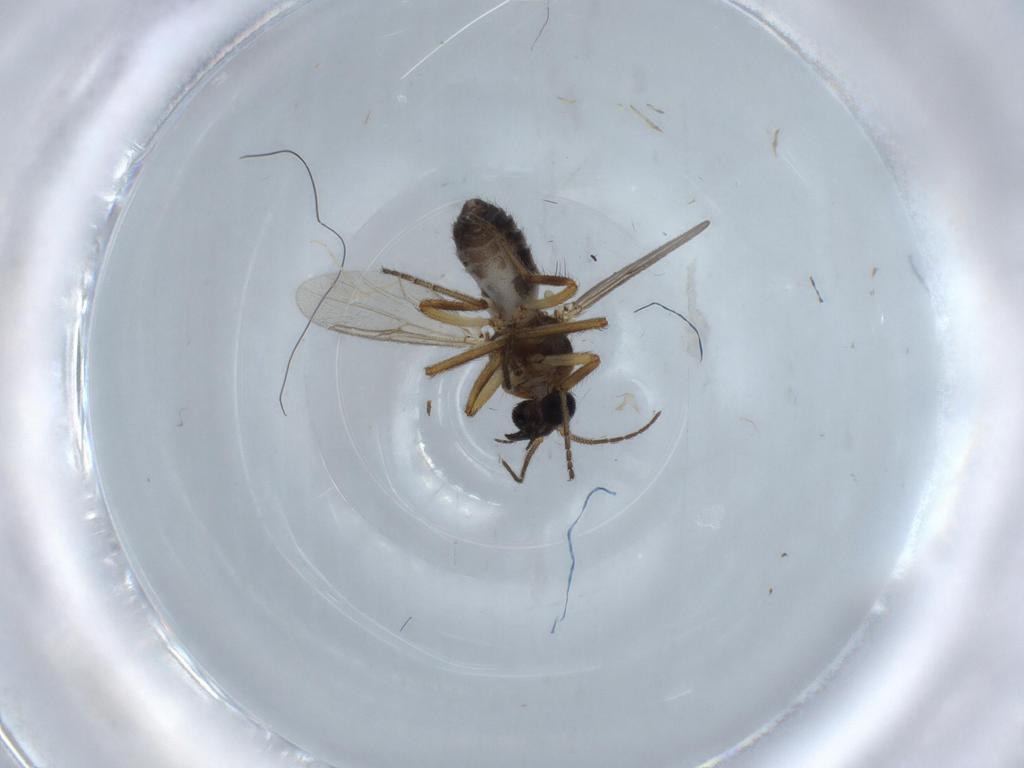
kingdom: Animalia
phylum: Arthropoda
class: Insecta
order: Diptera
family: Ceratopogonidae
